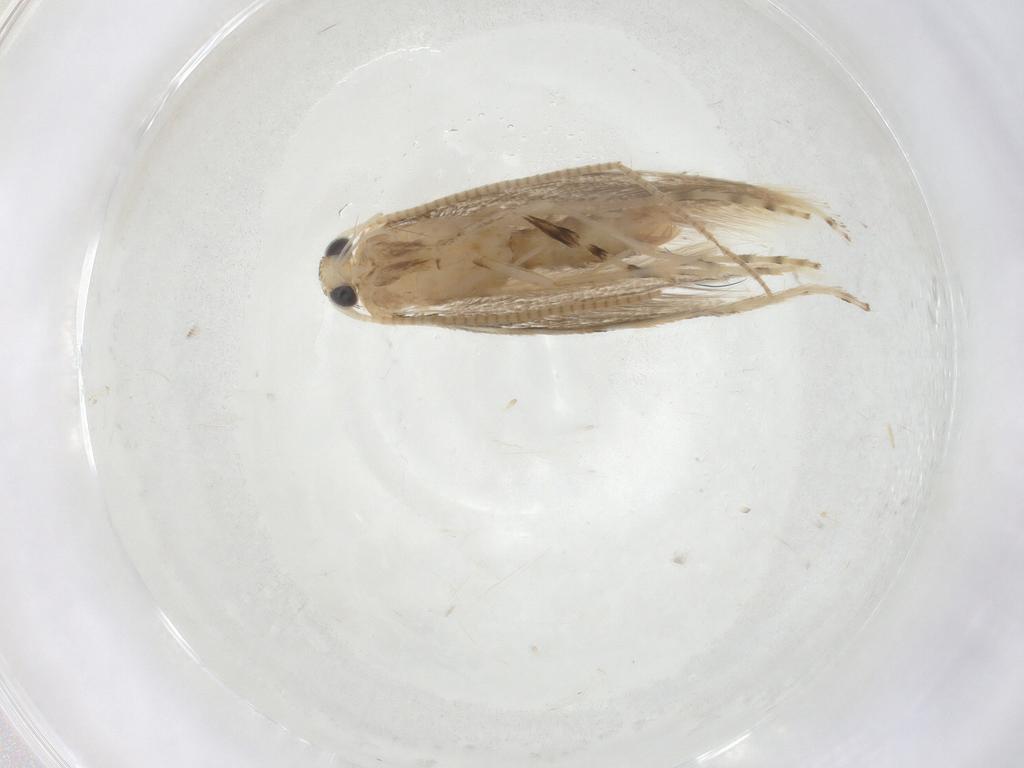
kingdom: Animalia
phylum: Arthropoda
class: Insecta
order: Lepidoptera
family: Gracillariidae
